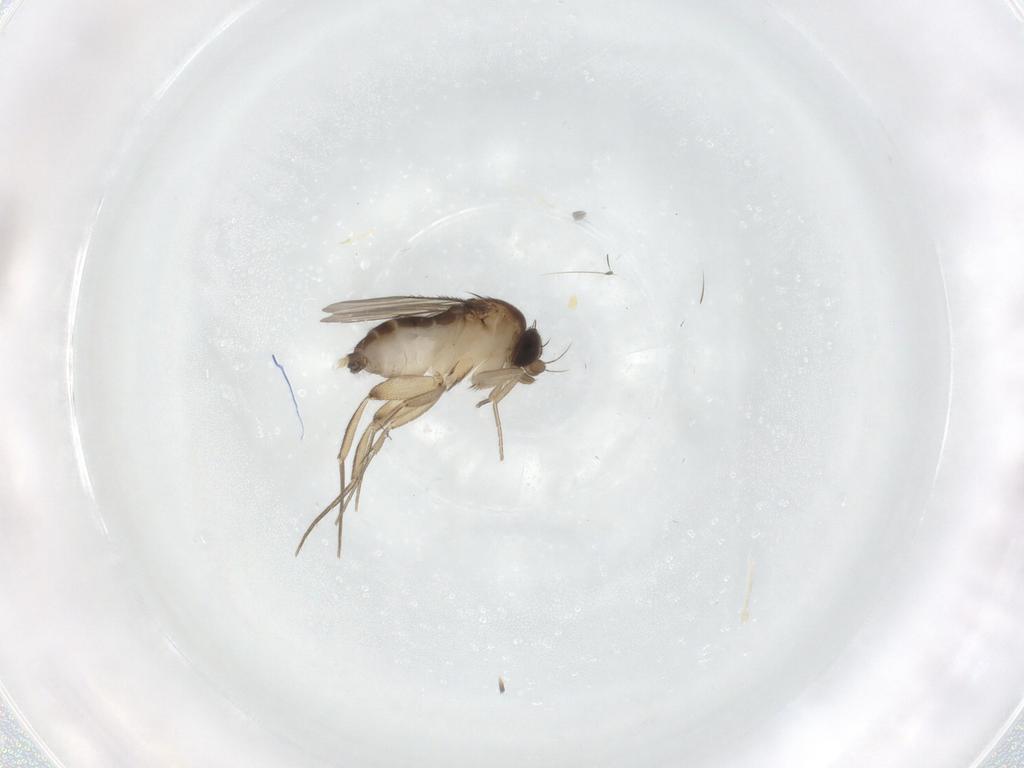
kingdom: Animalia
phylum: Arthropoda
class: Insecta
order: Diptera
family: Phoridae
